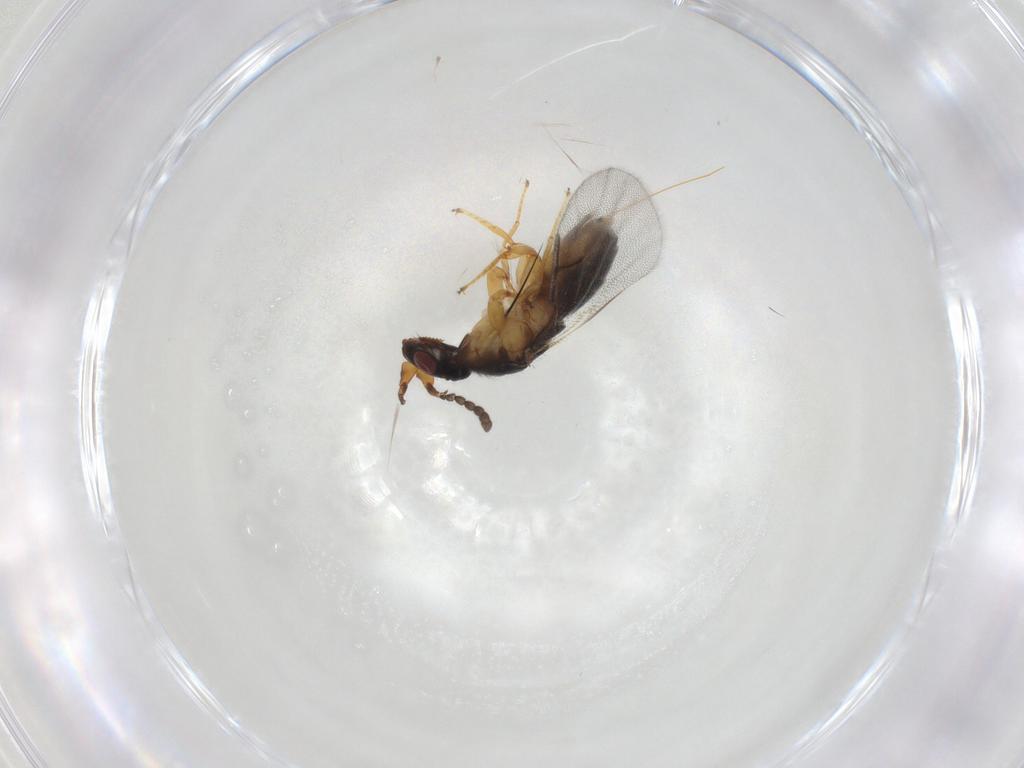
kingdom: Animalia
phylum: Arthropoda
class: Insecta
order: Hymenoptera
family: Agaonidae
